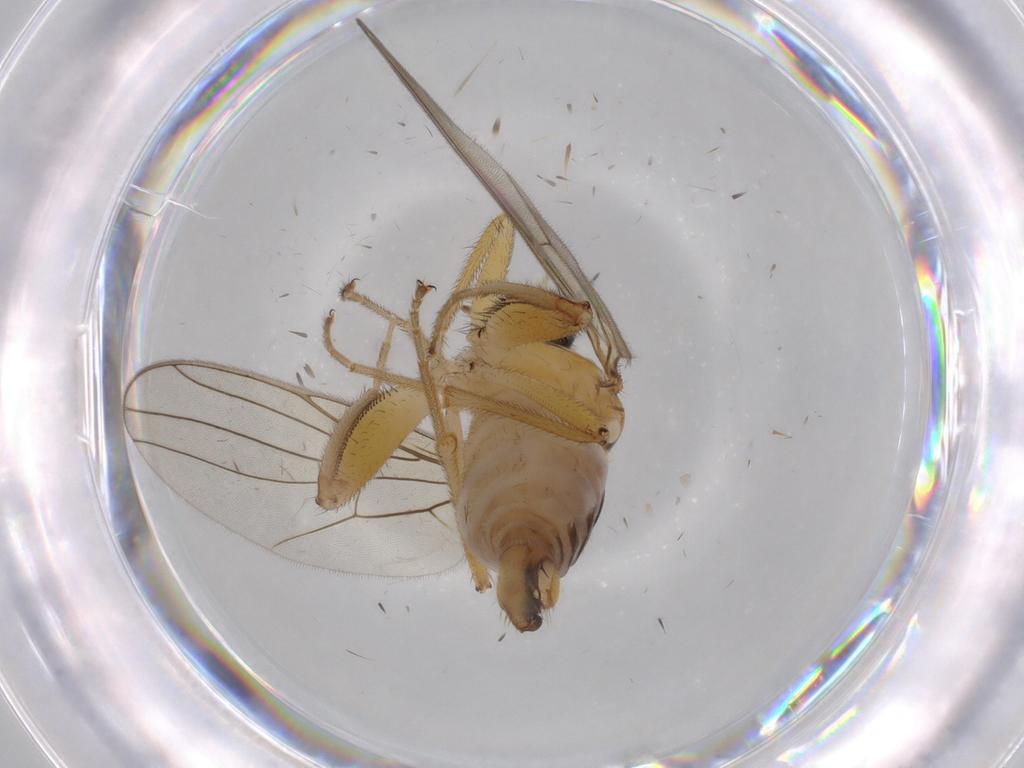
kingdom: Animalia
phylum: Arthropoda
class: Insecta
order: Diptera
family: Hybotidae
